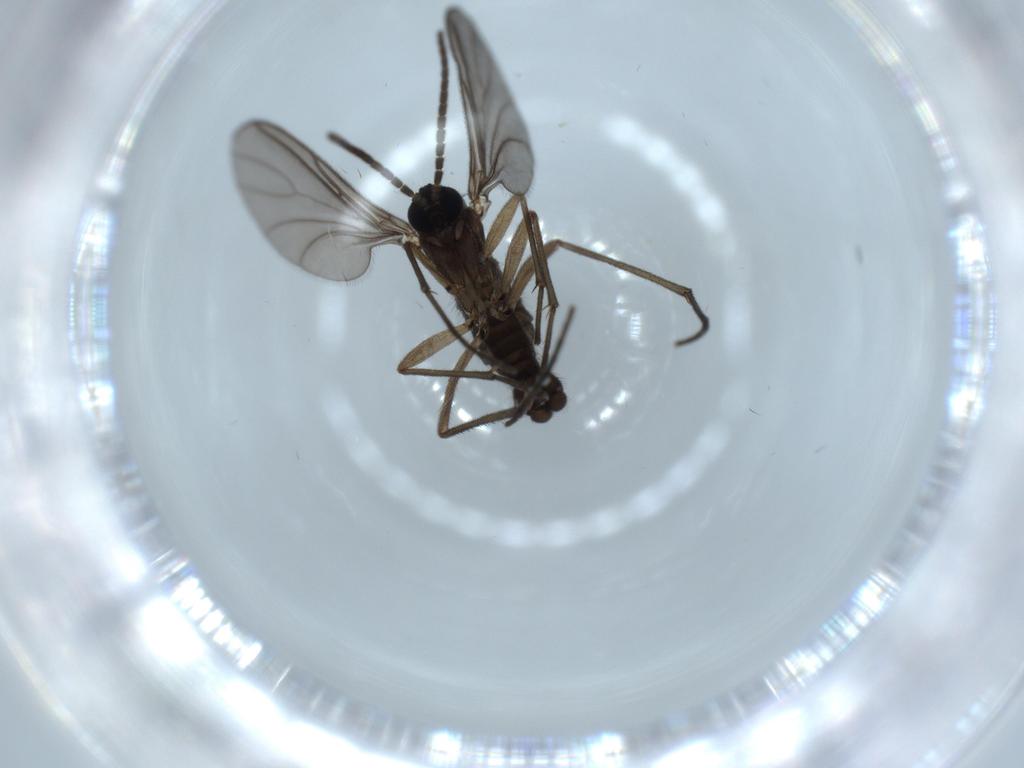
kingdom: Animalia
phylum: Arthropoda
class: Insecta
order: Diptera
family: Sciaridae
